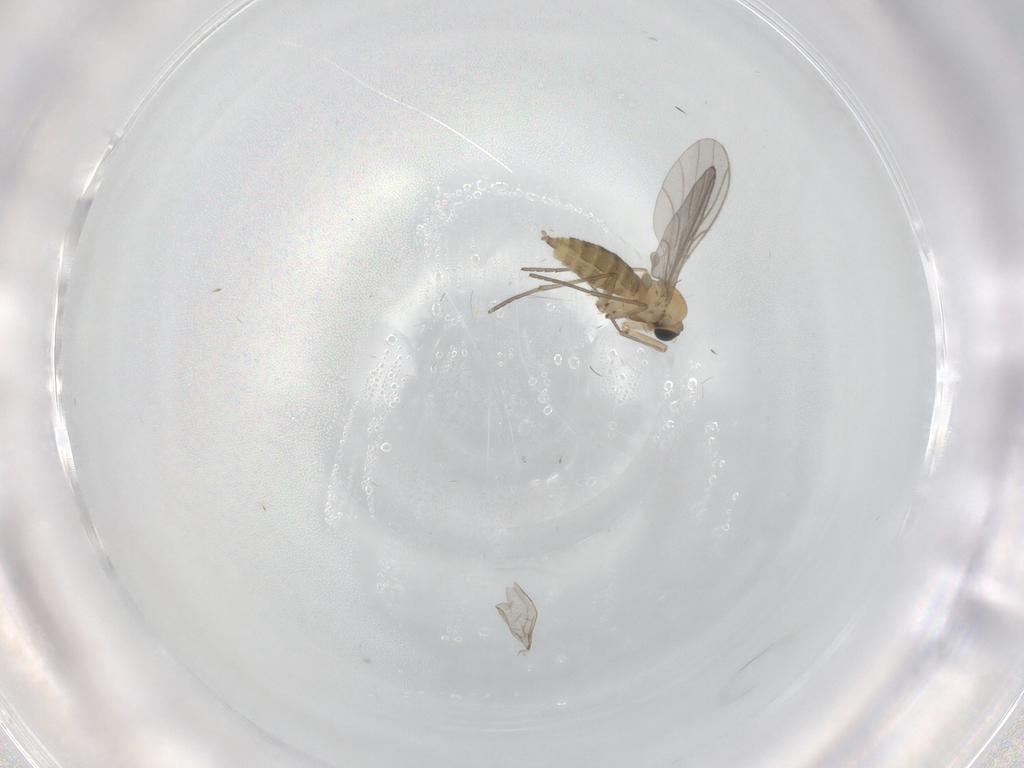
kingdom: Animalia
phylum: Arthropoda
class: Insecta
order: Diptera
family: Sciaridae
